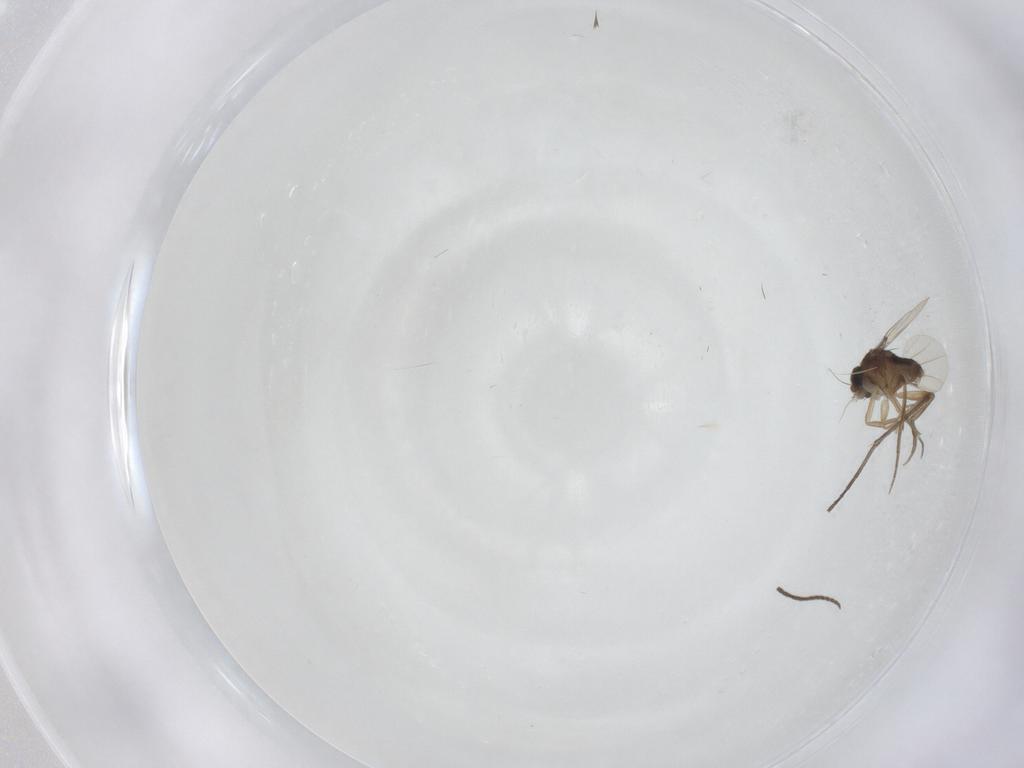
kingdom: Animalia
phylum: Arthropoda
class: Insecta
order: Diptera
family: Phoridae
